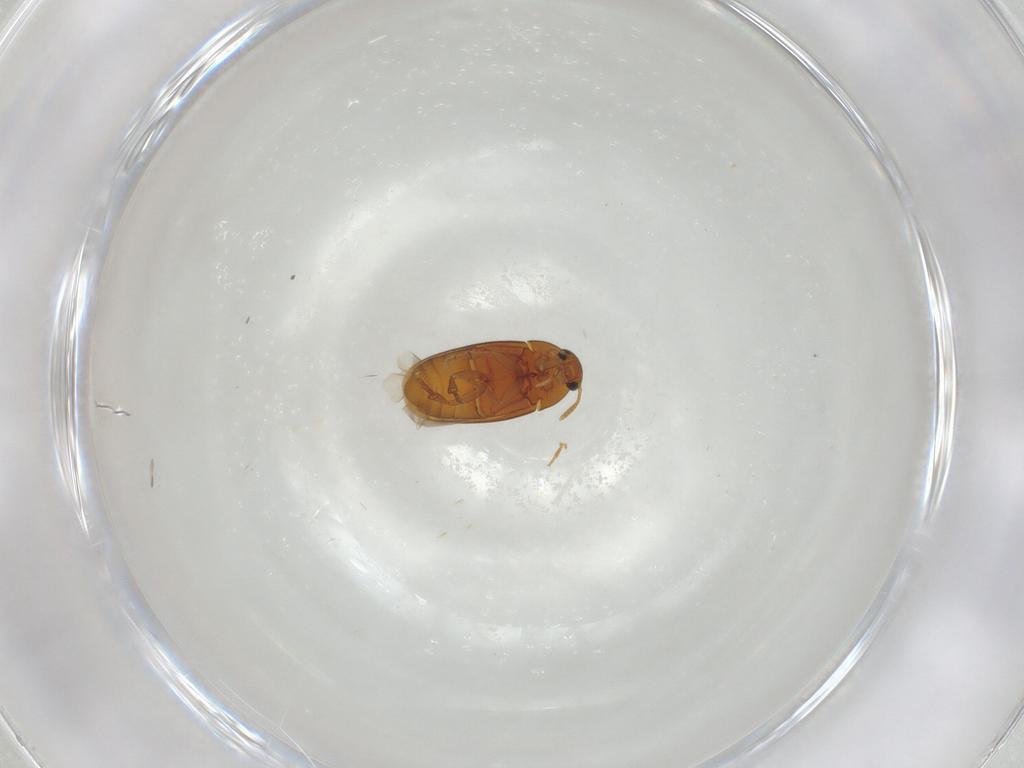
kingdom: Animalia
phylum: Arthropoda
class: Insecta
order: Coleoptera
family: Scraptiidae
